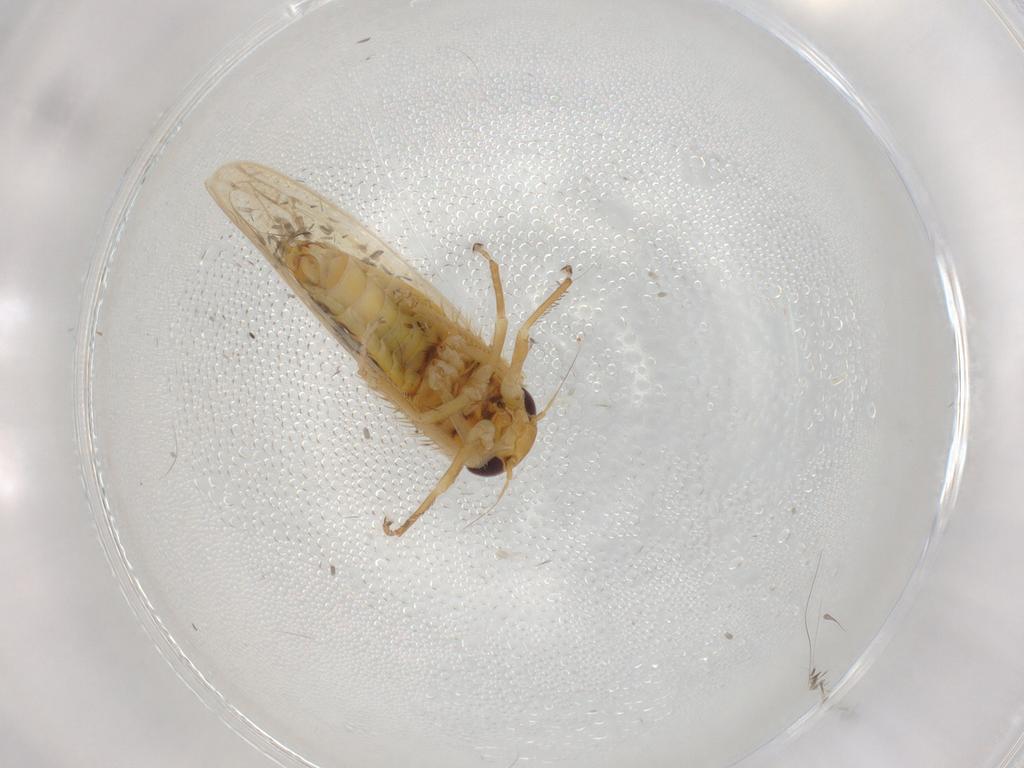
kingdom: Animalia
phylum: Arthropoda
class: Insecta
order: Hemiptera
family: Cicadellidae
